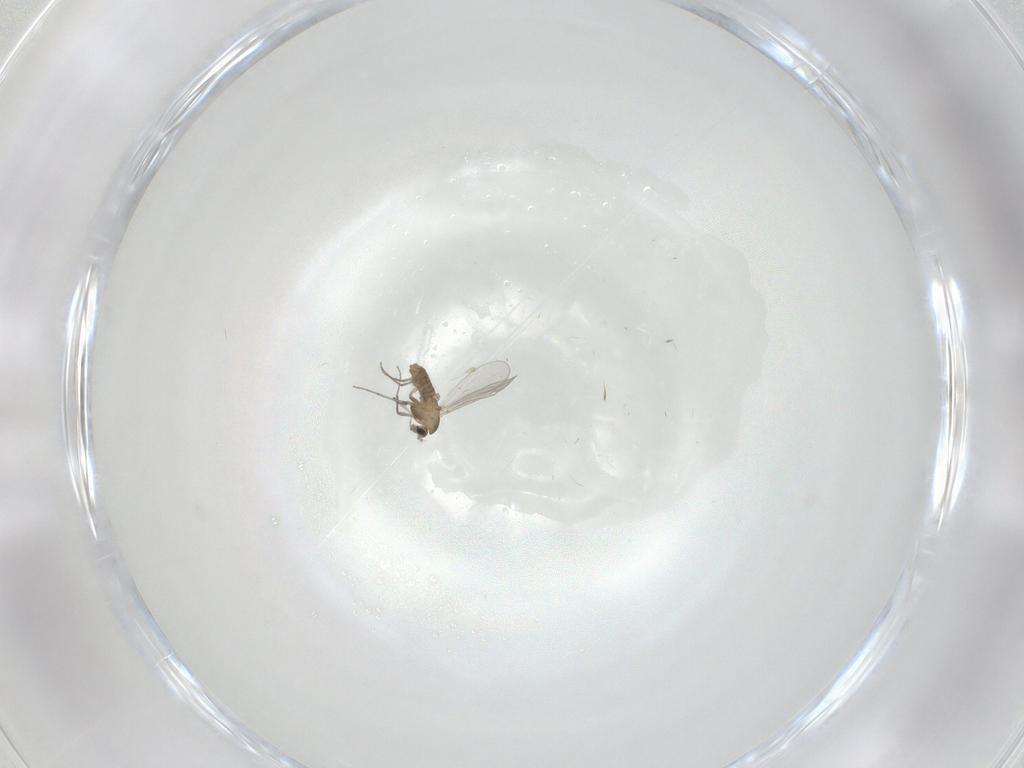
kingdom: Animalia
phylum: Arthropoda
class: Insecta
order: Diptera
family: Chironomidae
